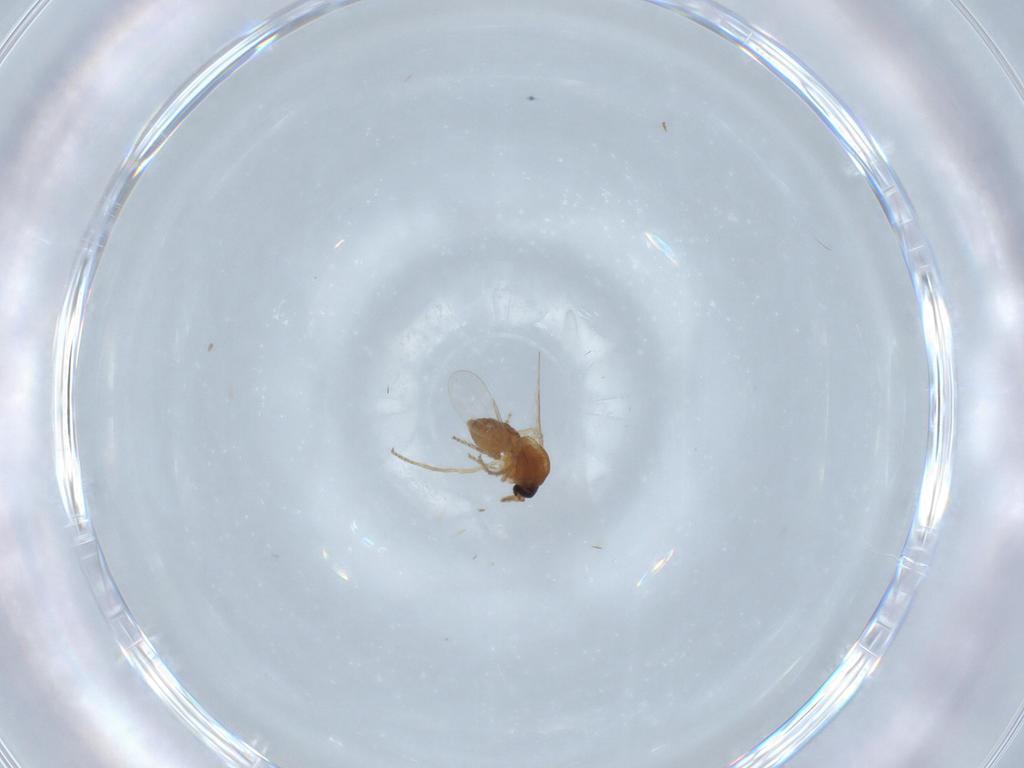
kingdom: Animalia
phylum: Arthropoda
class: Insecta
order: Diptera
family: Ceratopogonidae
